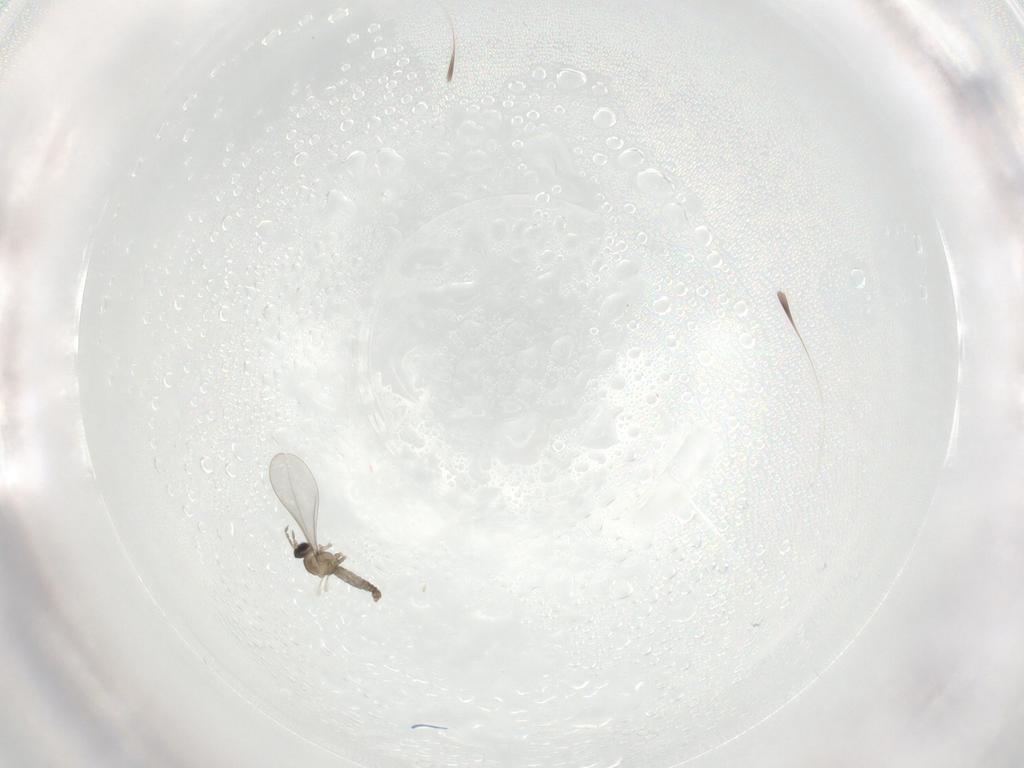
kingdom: Animalia
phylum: Arthropoda
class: Insecta
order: Diptera
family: Cecidomyiidae
